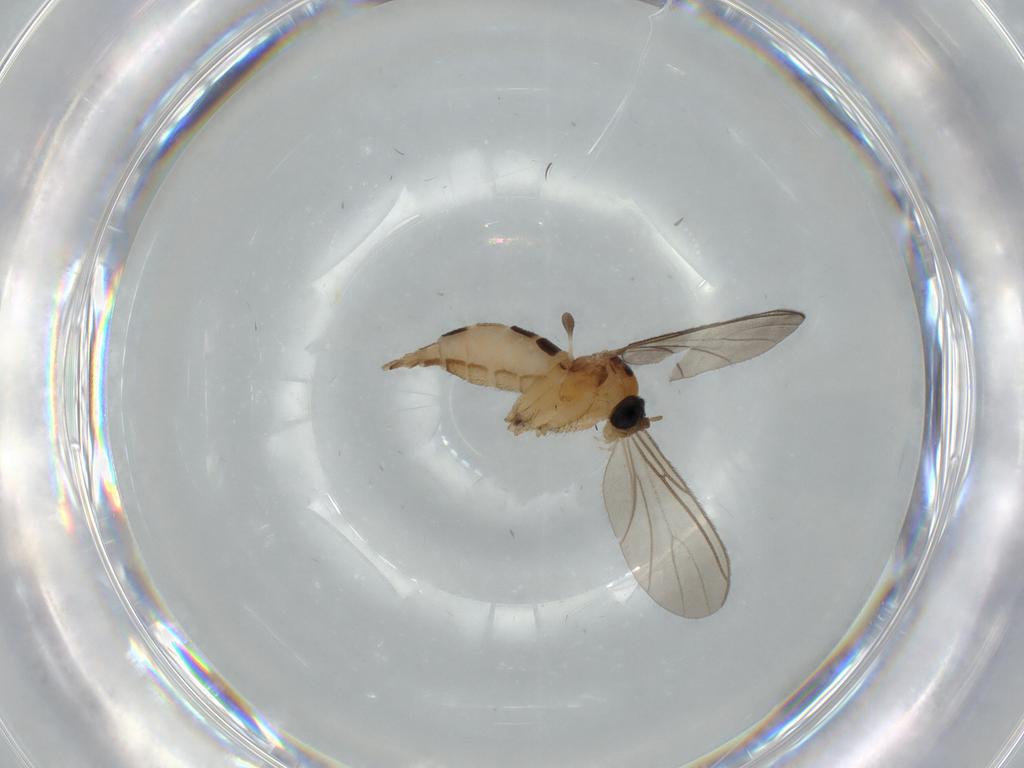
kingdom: Animalia
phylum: Arthropoda
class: Insecta
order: Diptera
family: Sciaridae
